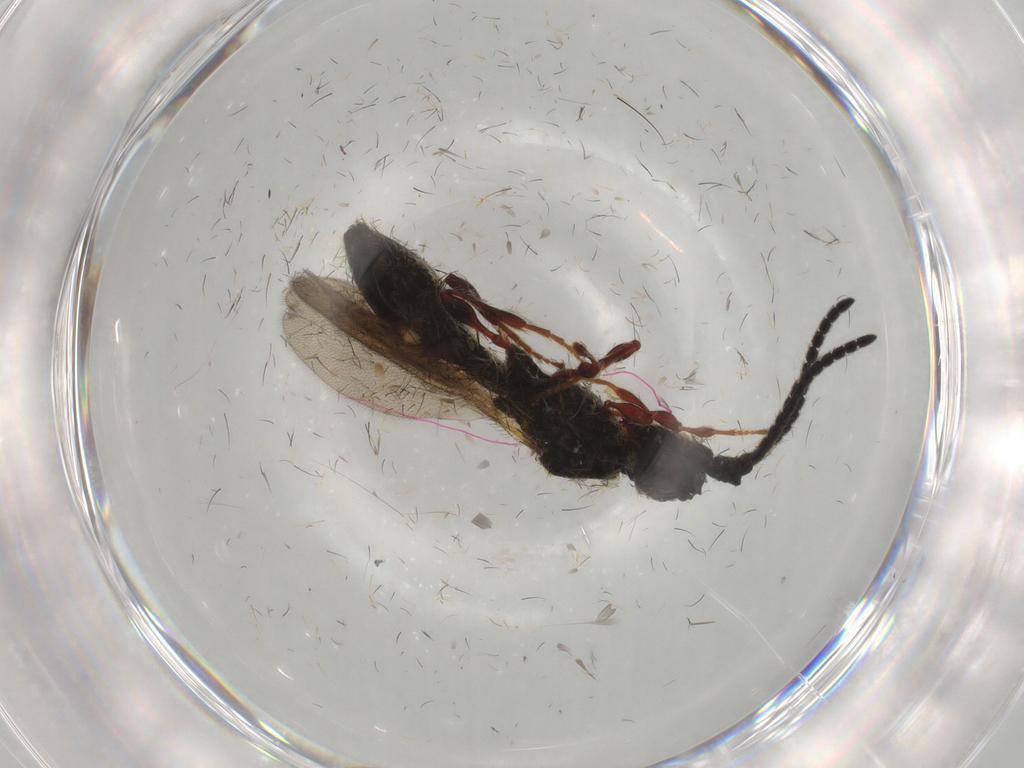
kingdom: Animalia
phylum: Arthropoda
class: Insecta
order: Hymenoptera
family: Diapriidae
